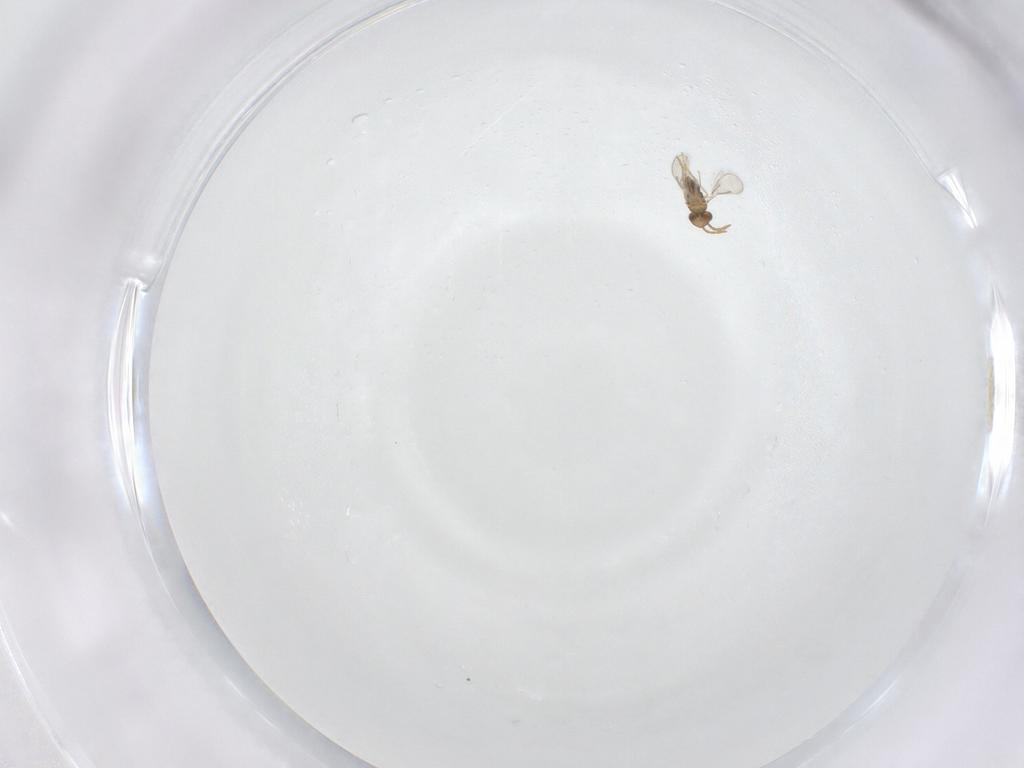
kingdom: Animalia
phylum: Arthropoda
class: Insecta
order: Hymenoptera
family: Aphelinidae
